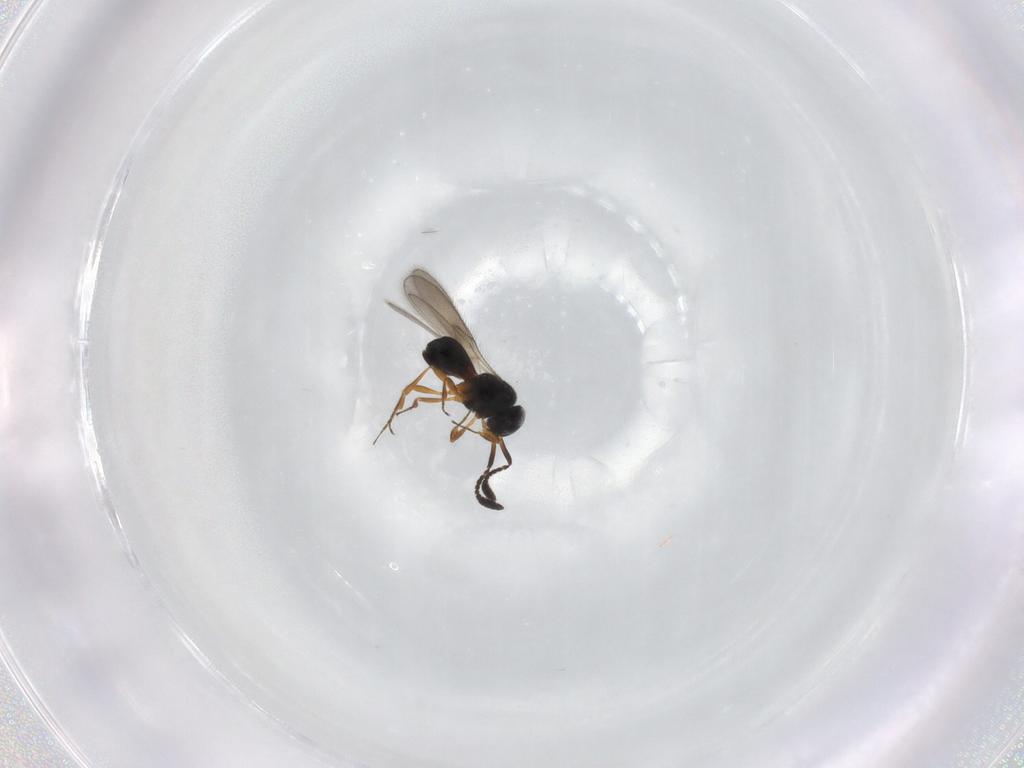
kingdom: Animalia
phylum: Arthropoda
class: Insecta
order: Hymenoptera
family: Scelionidae
